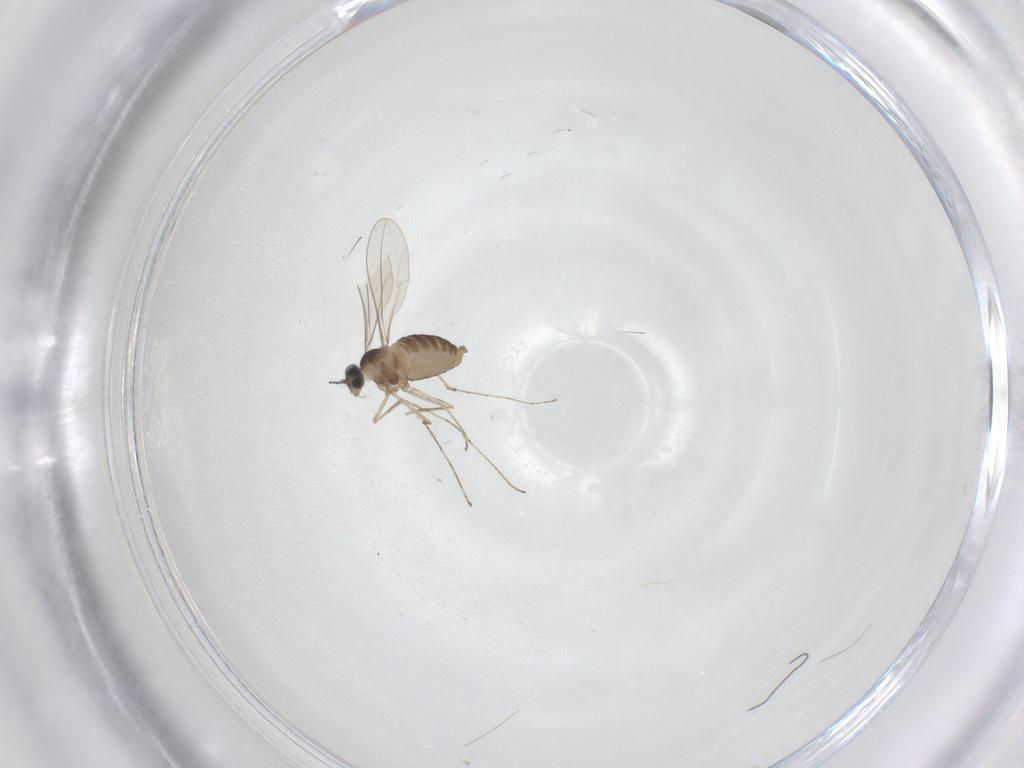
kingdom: Animalia
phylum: Arthropoda
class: Insecta
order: Diptera
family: Cecidomyiidae
